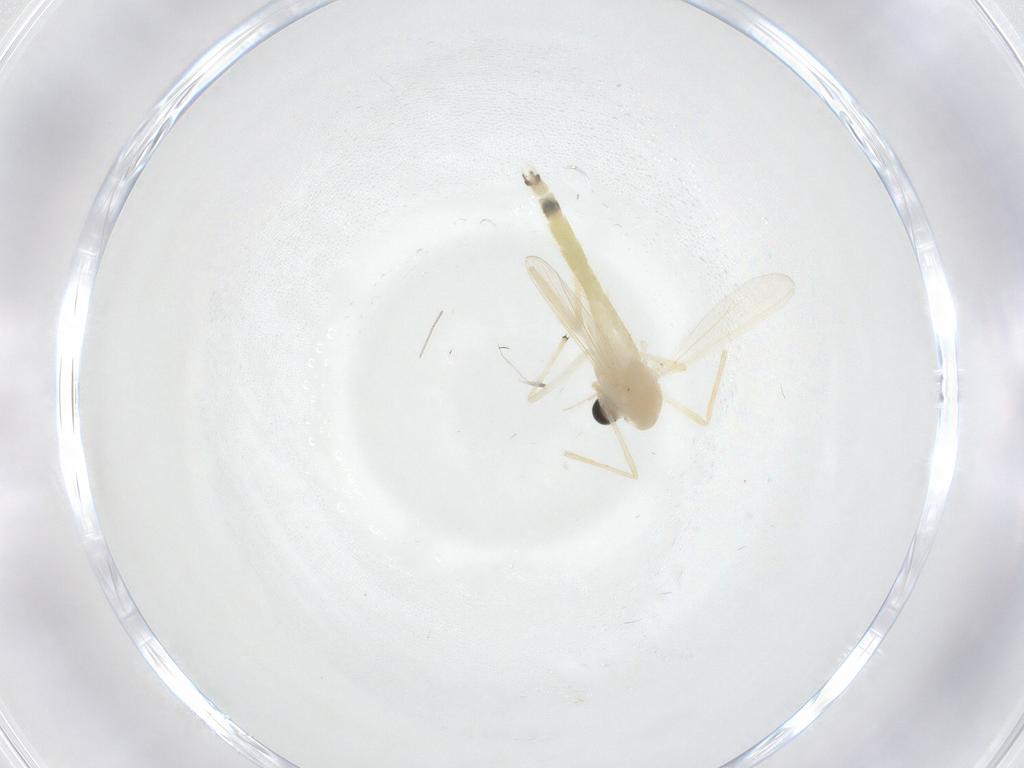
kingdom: Animalia
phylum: Arthropoda
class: Insecta
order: Diptera
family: Chironomidae
